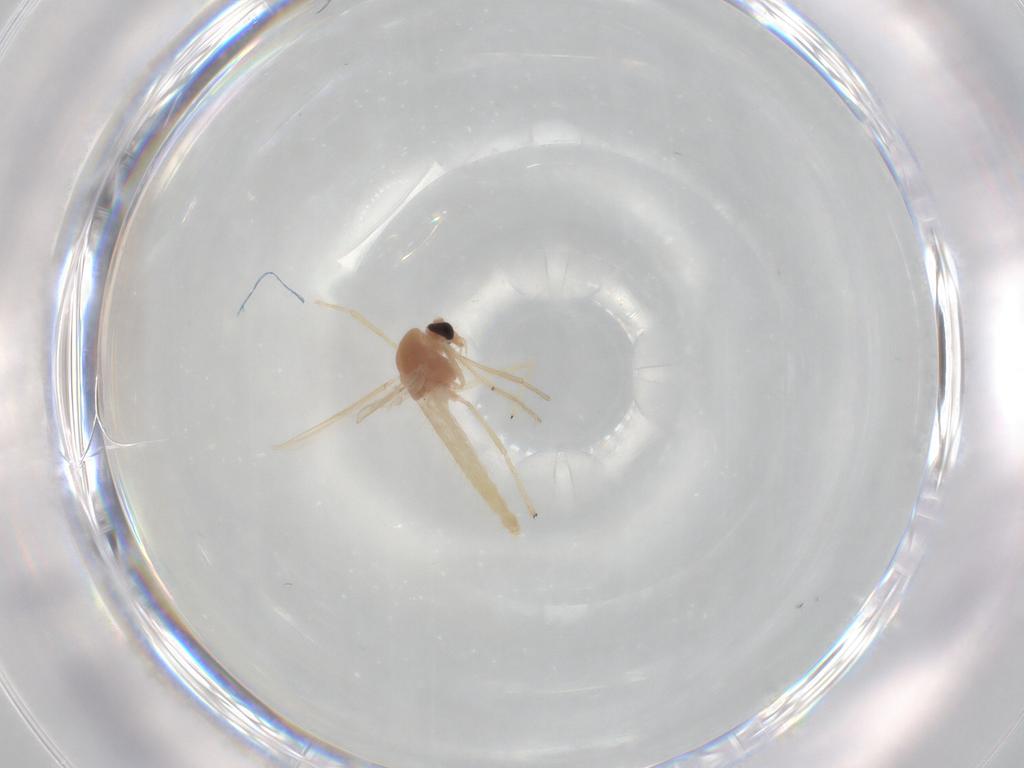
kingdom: Animalia
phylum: Arthropoda
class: Insecta
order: Diptera
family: Chironomidae
